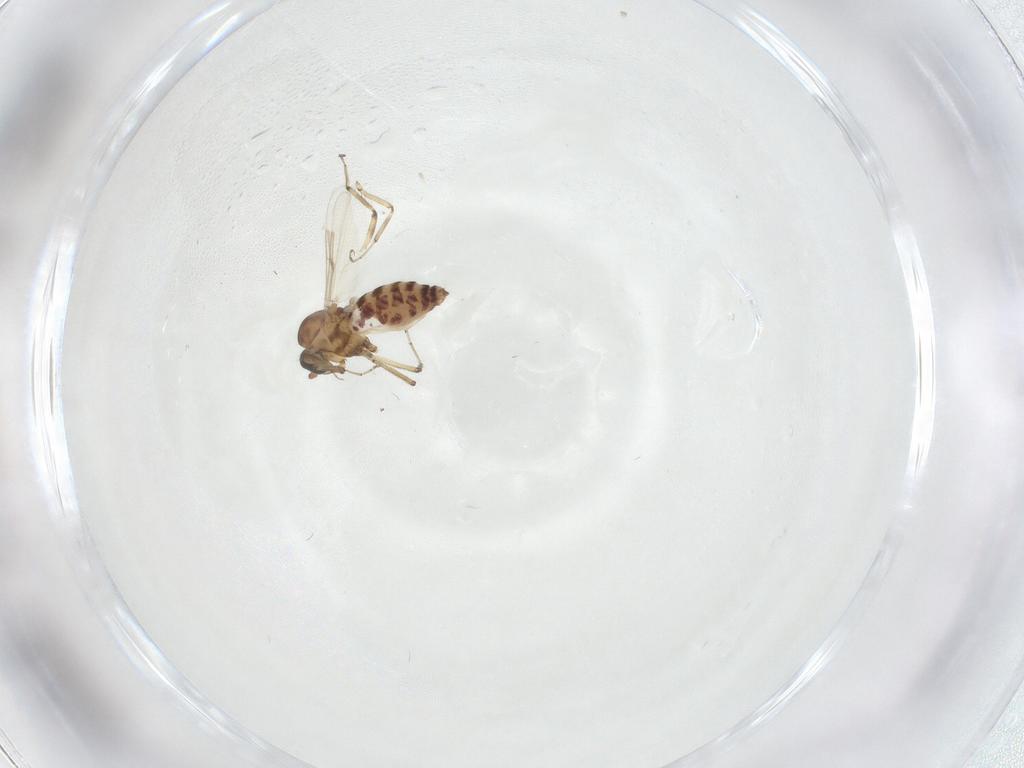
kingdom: Animalia
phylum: Arthropoda
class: Insecta
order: Diptera
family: Ceratopogonidae
